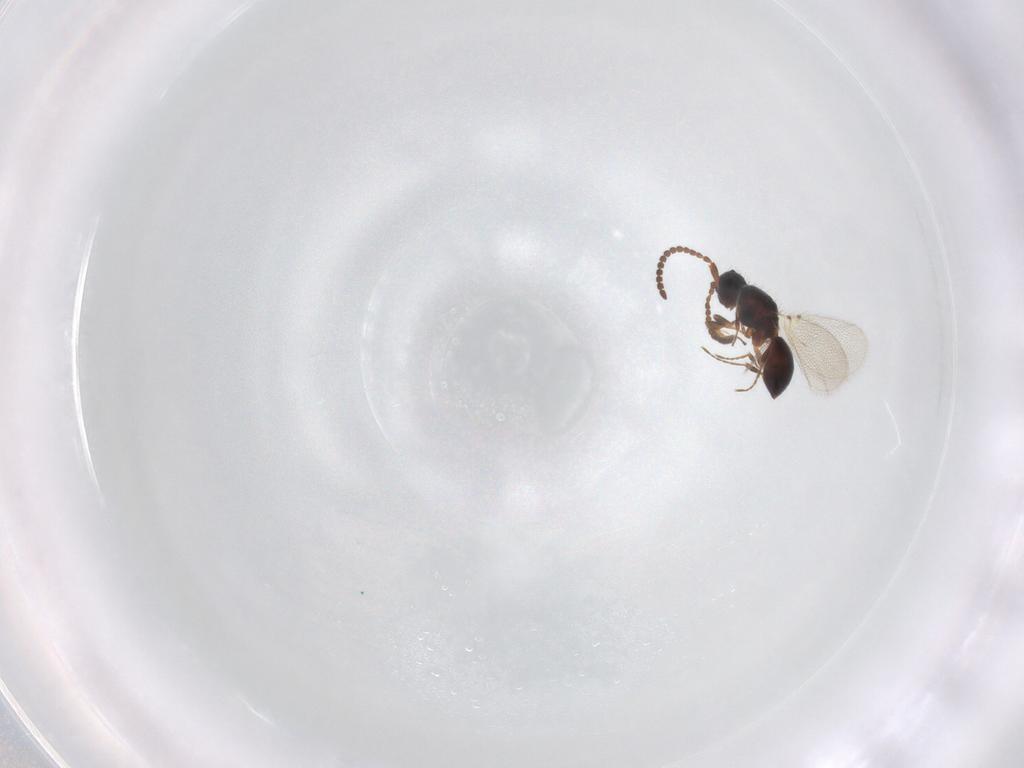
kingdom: Animalia
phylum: Arthropoda
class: Insecta
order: Hymenoptera
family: Diapriidae
